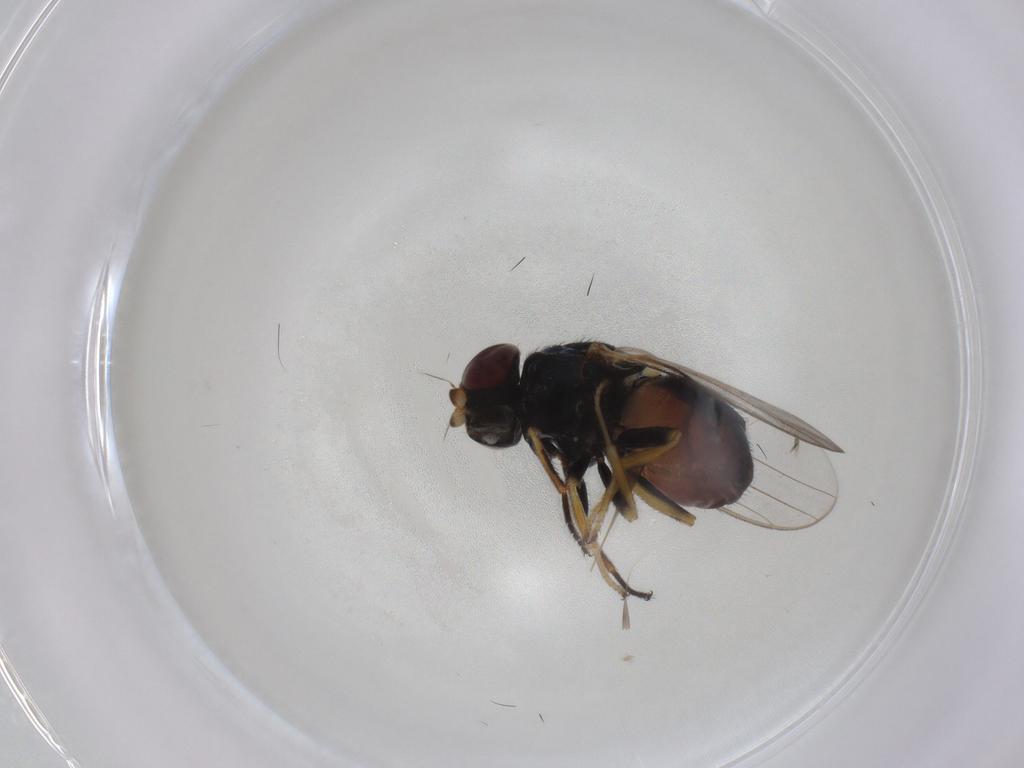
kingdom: Animalia
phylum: Arthropoda
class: Insecta
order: Diptera
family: Chloropidae
